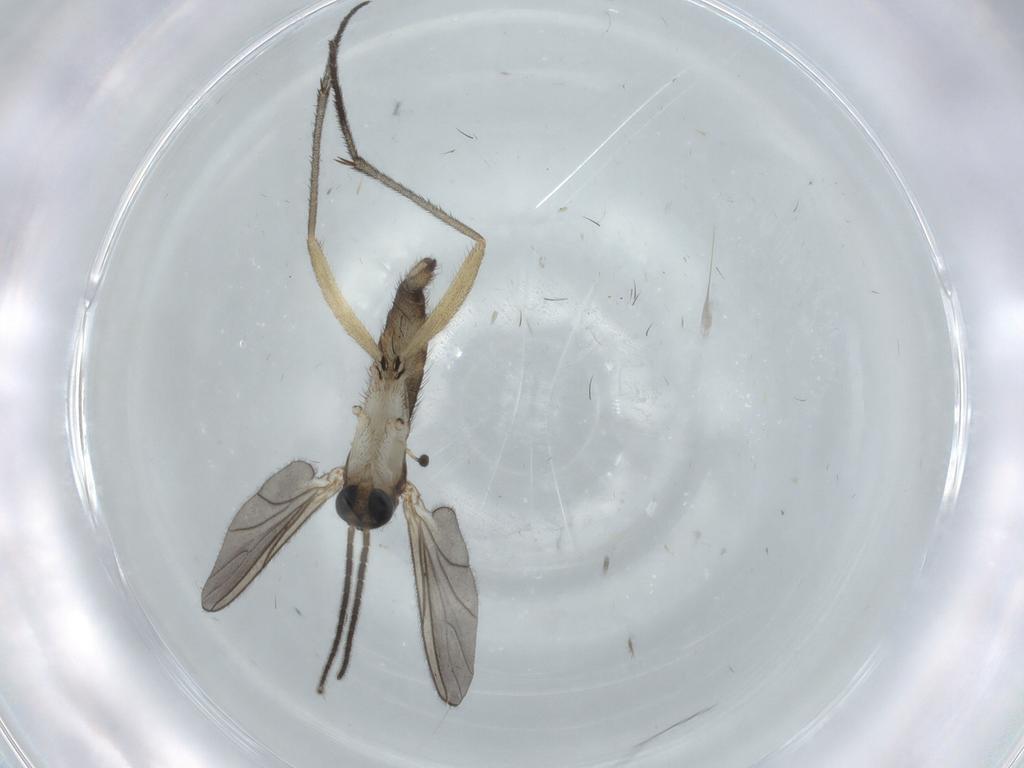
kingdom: Animalia
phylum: Arthropoda
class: Insecta
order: Diptera
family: Sciaridae
